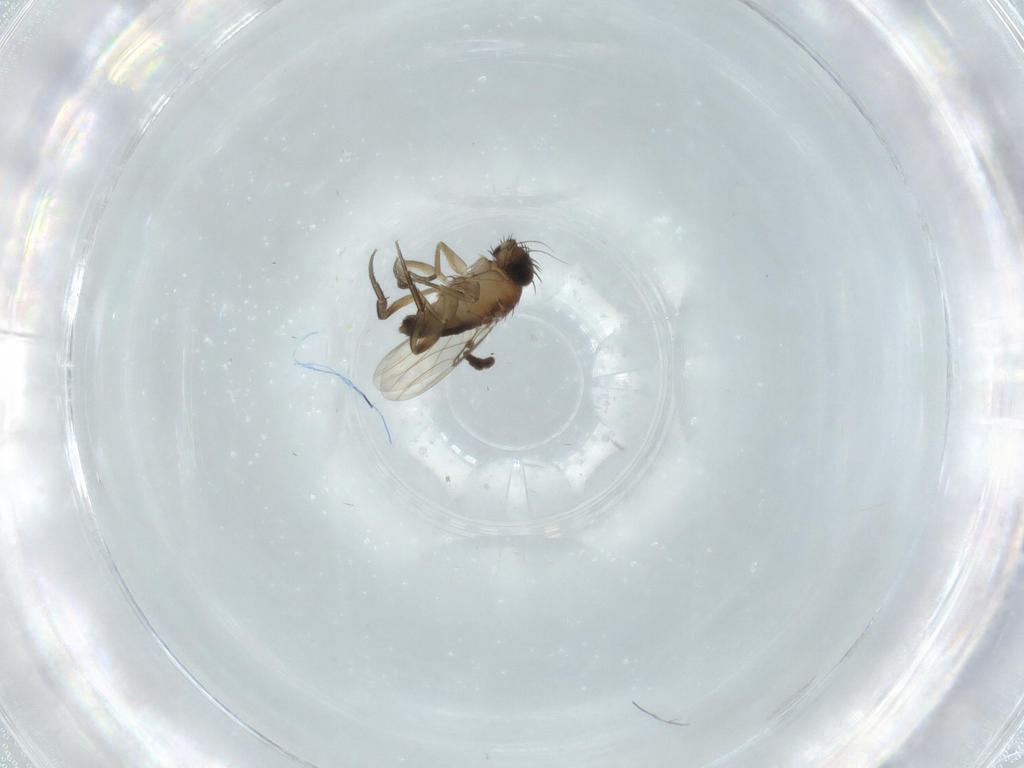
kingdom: Animalia
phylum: Arthropoda
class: Insecta
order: Diptera
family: Phoridae
